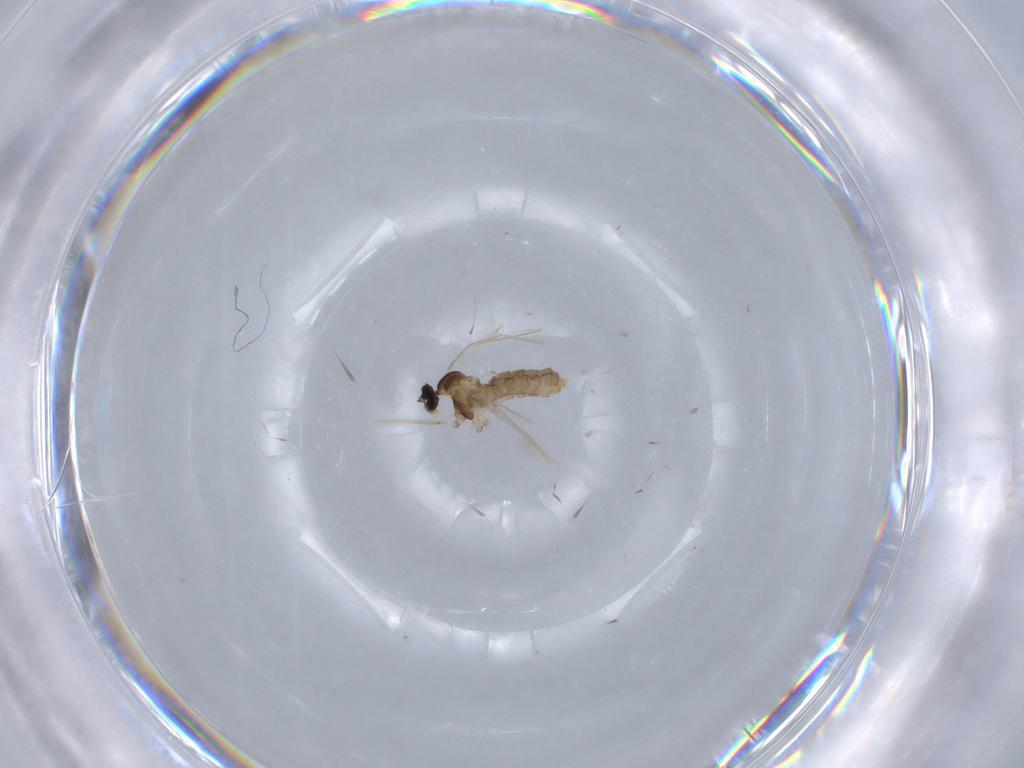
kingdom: Animalia
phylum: Arthropoda
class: Insecta
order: Diptera
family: Cecidomyiidae
